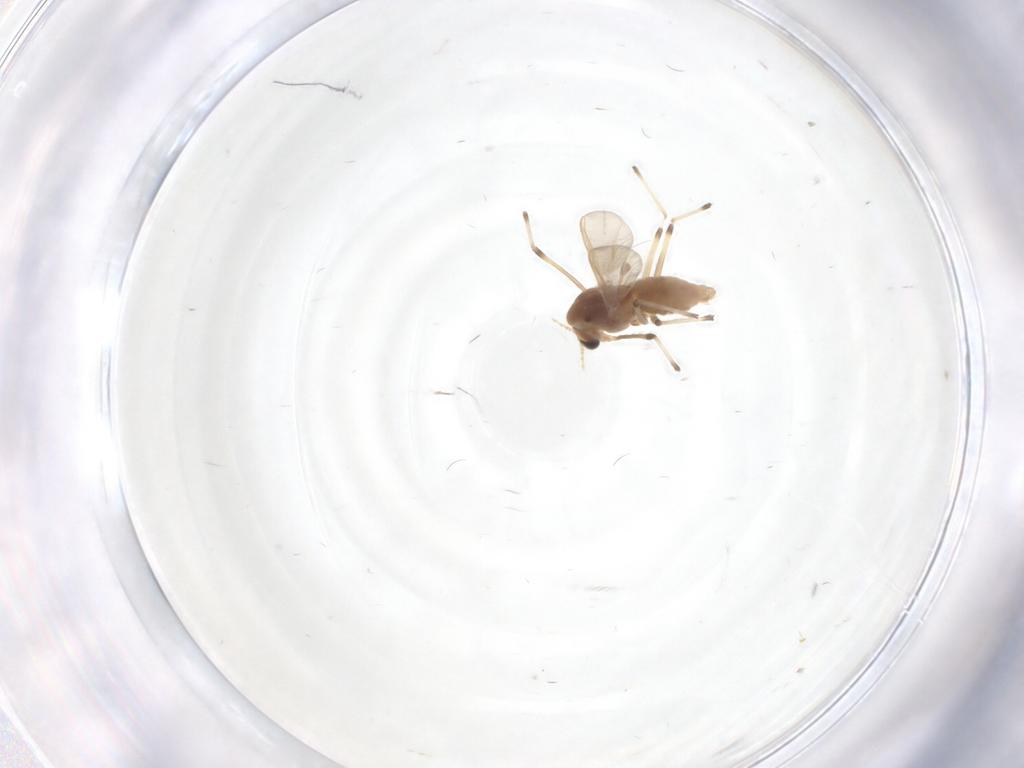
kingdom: Animalia
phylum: Arthropoda
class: Insecta
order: Diptera
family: Chironomidae
